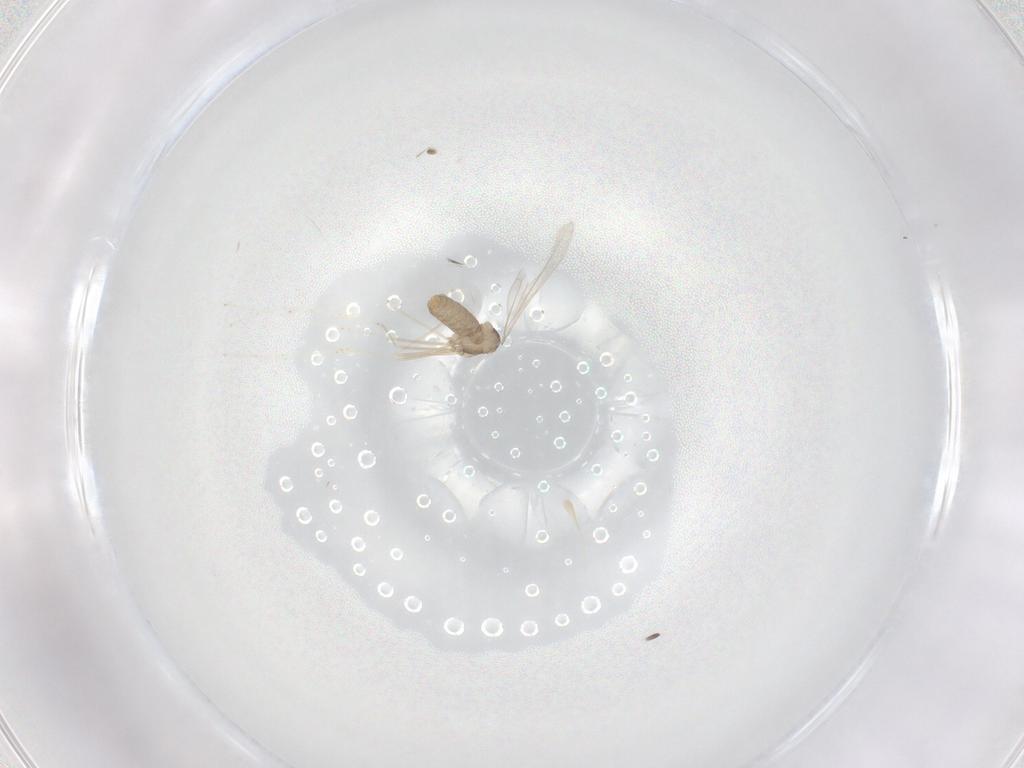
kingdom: Animalia
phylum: Arthropoda
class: Insecta
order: Diptera
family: Cecidomyiidae
